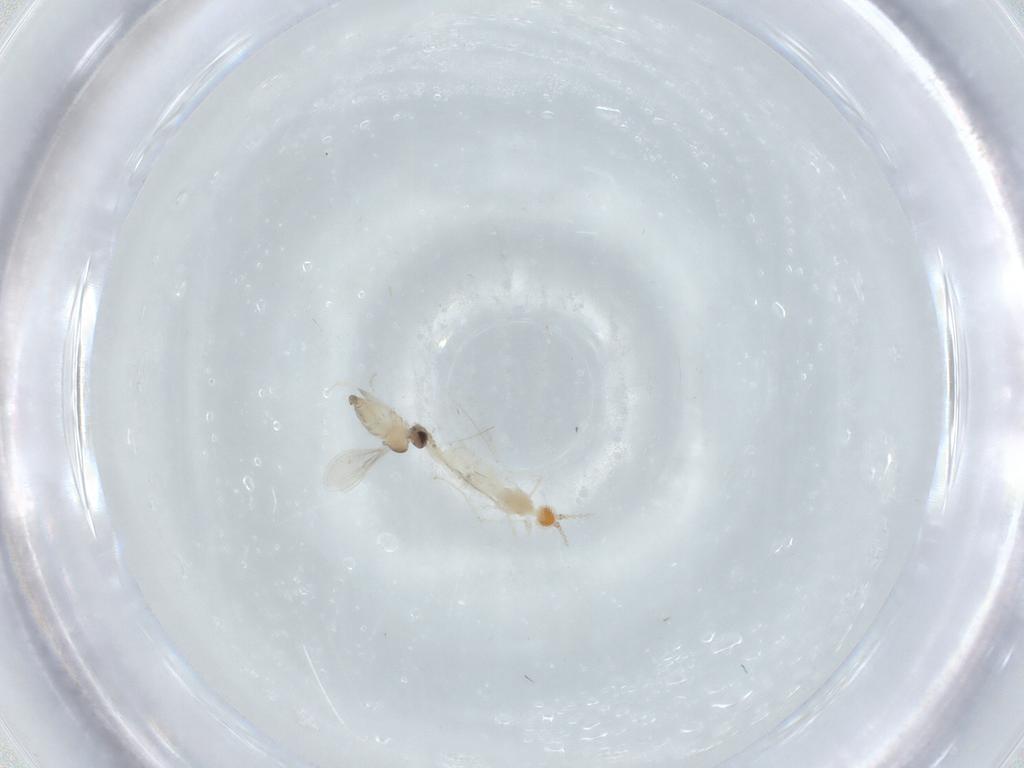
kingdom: Animalia
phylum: Arthropoda
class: Insecta
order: Diptera
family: Cecidomyiidae
